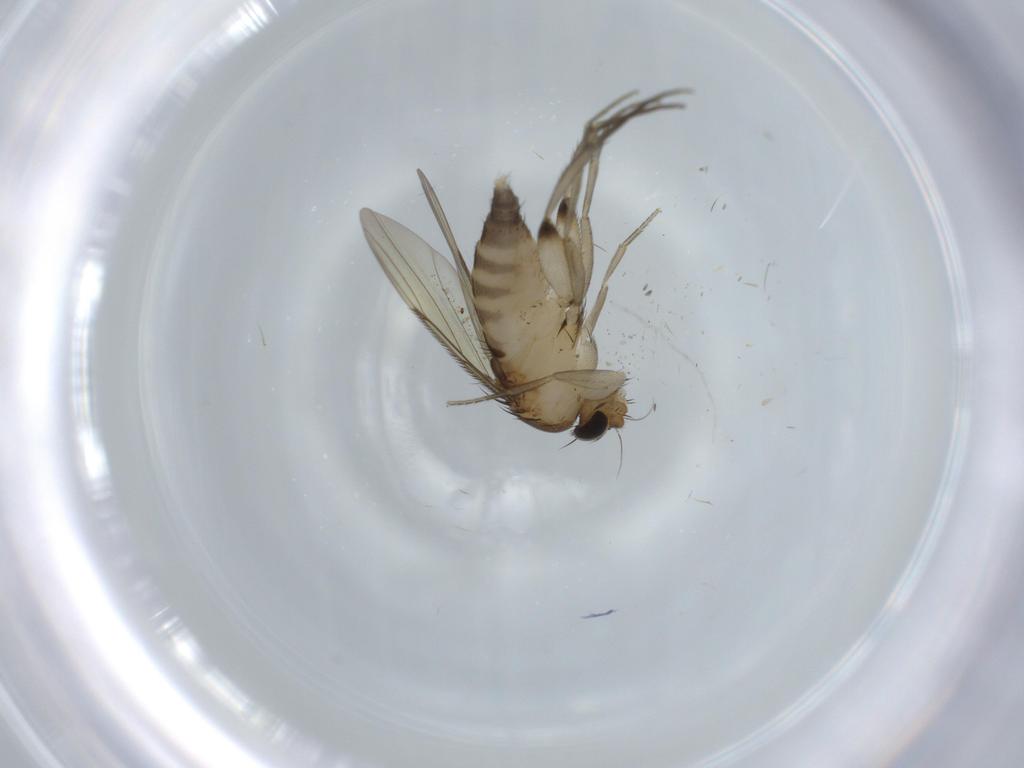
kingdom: Animalia
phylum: Arthropoda
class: Insecta
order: Diptera
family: Phoridae
